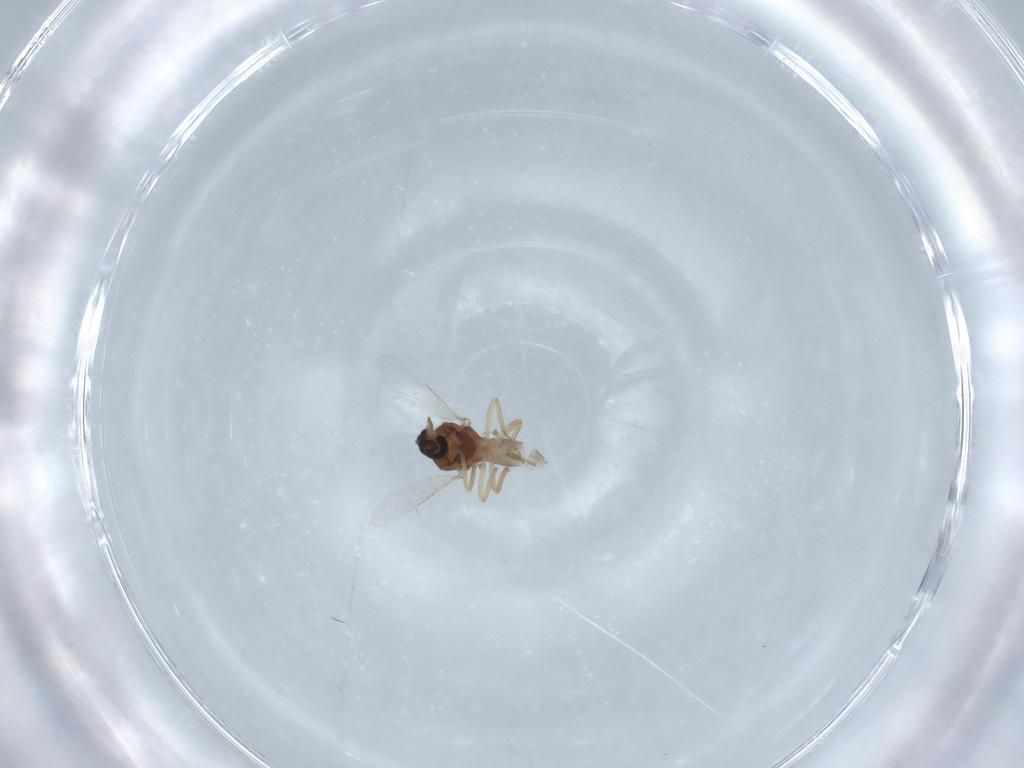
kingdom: Animalia
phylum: Arthropoda
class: Insecta
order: Diptera
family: Ceratopogonidae
